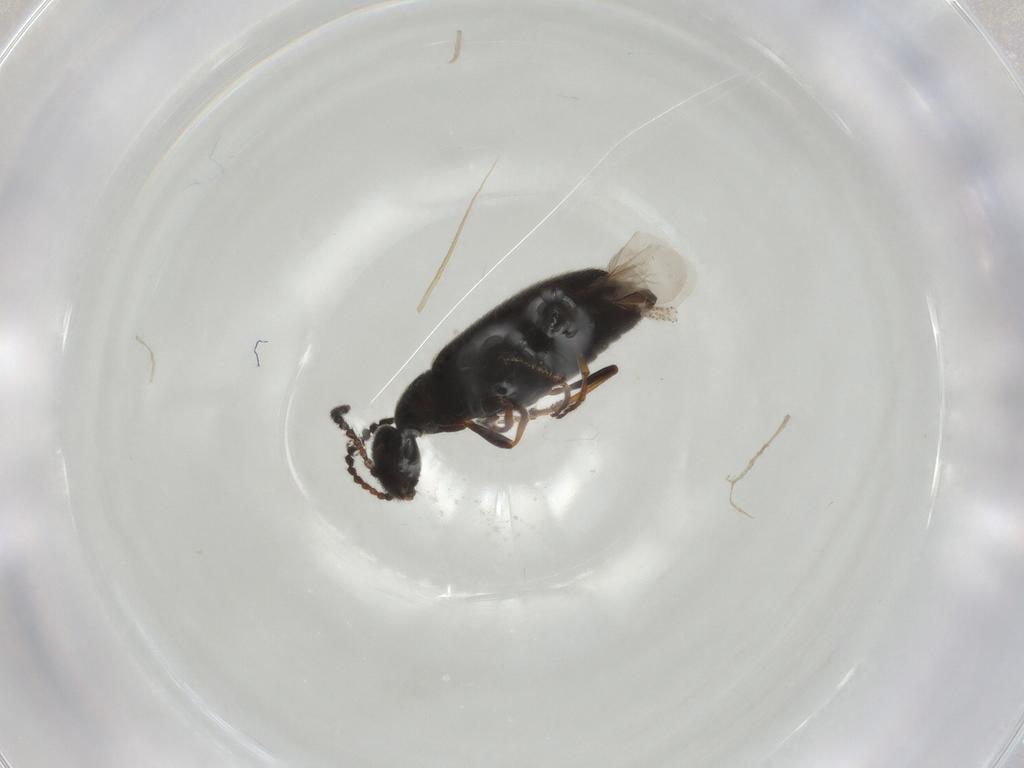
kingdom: Animalia
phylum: Arthropoda
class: Insecta
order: Coleoptera
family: Anthicidae
